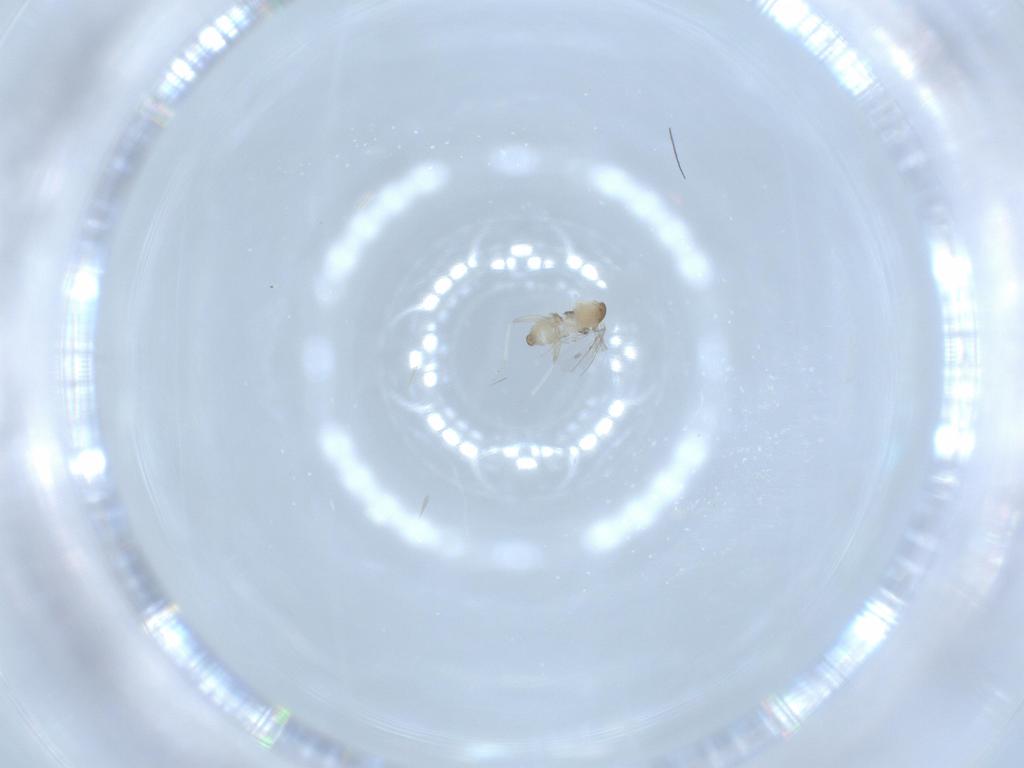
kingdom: Animalia
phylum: Arthropoda
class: Insecta
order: Diptera
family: Cecidomyiidae
